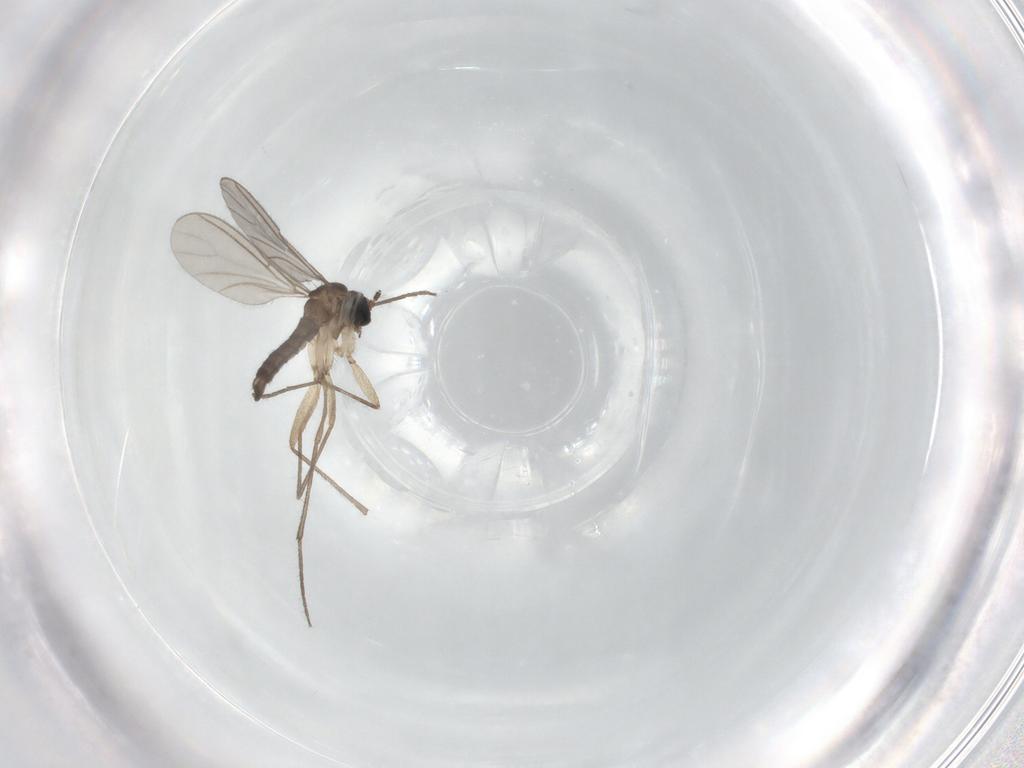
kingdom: Animalia
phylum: Arthropoda
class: Insecta
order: Diptera
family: Sciaridae
